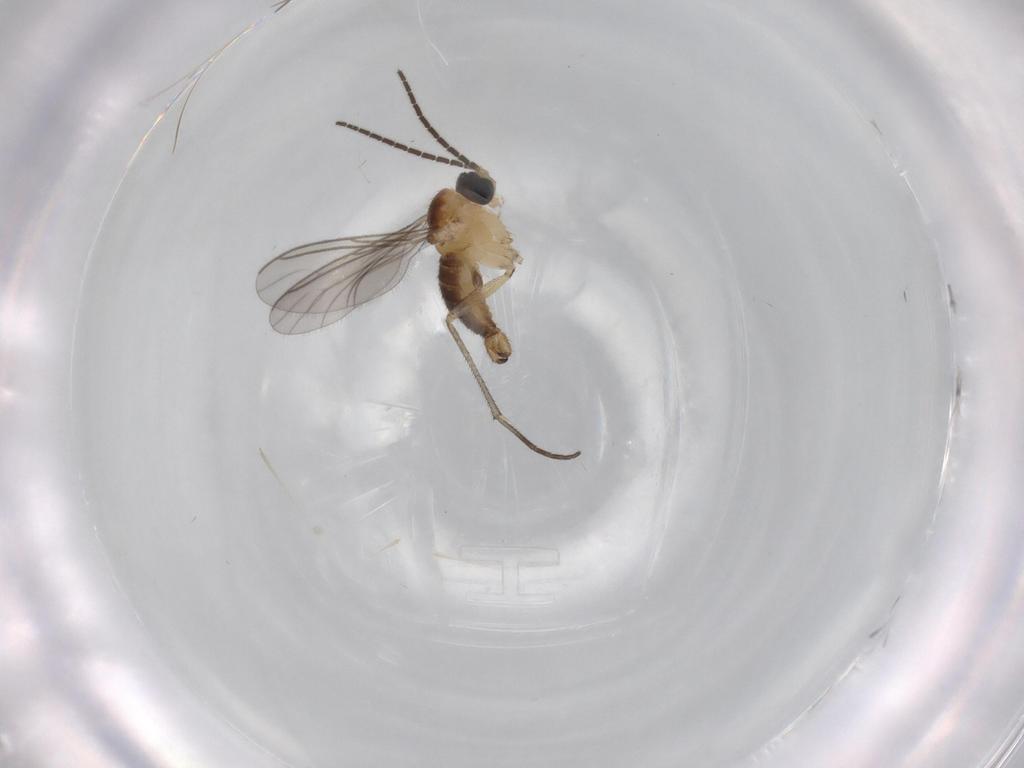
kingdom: Animalia
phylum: Arthropoda
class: Insecta
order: Diptera
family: Sciaridae
